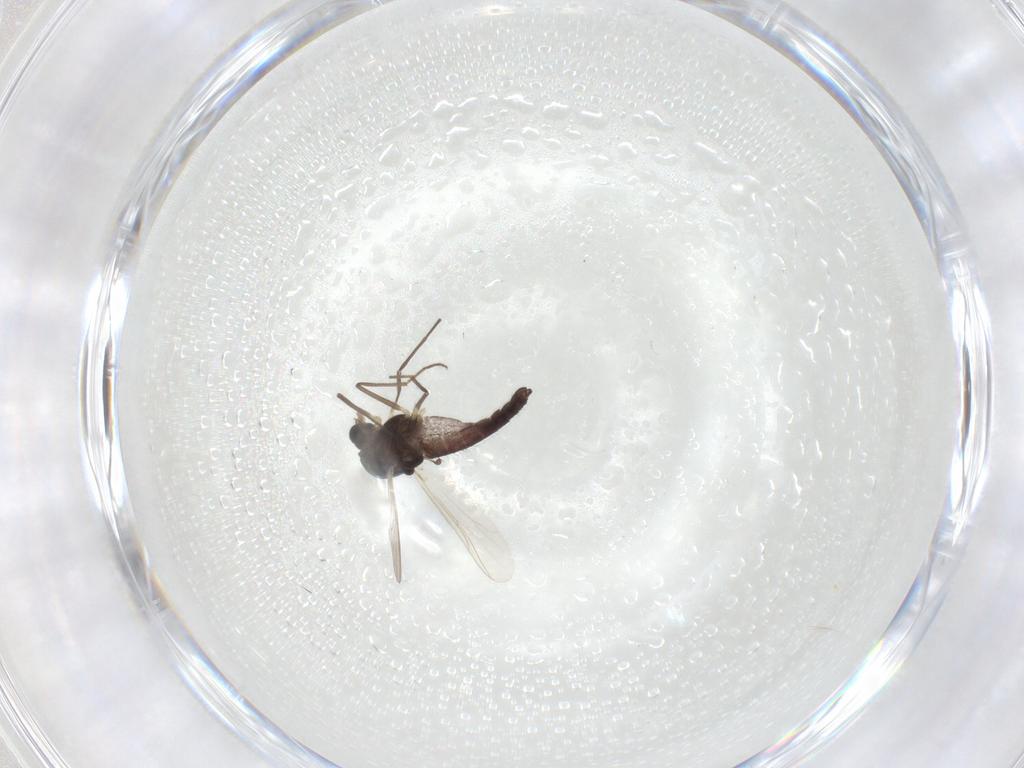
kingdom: Animalia
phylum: Arthropoda
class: Insecta
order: Diptera
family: Chironomidae
